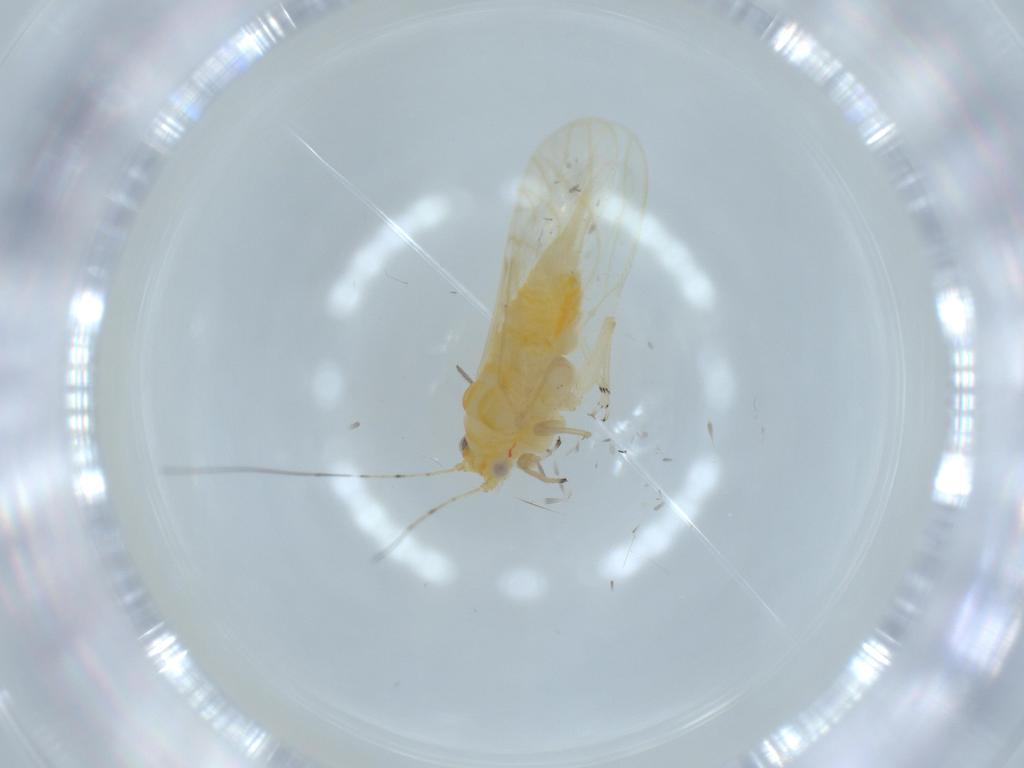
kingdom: Animalia
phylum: Arthropoda
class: Insecta
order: Hemiptera
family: Psyllidae
